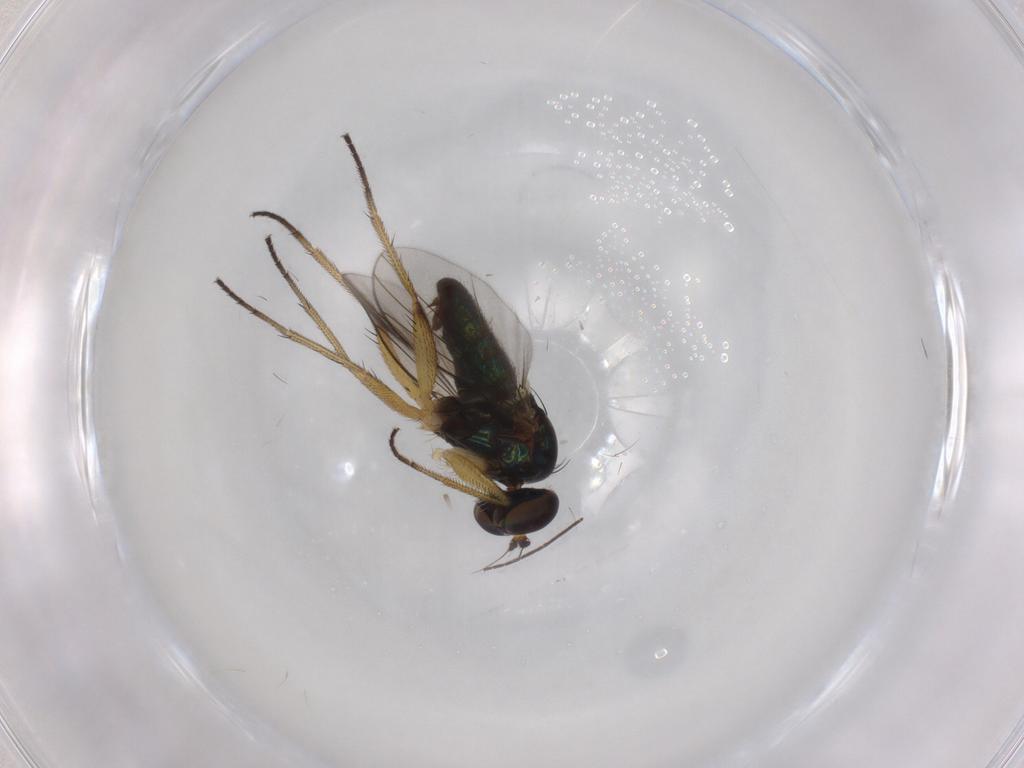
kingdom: Animalia
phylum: Arthropoda
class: Insecta
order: Diptera
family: Chironomidae
